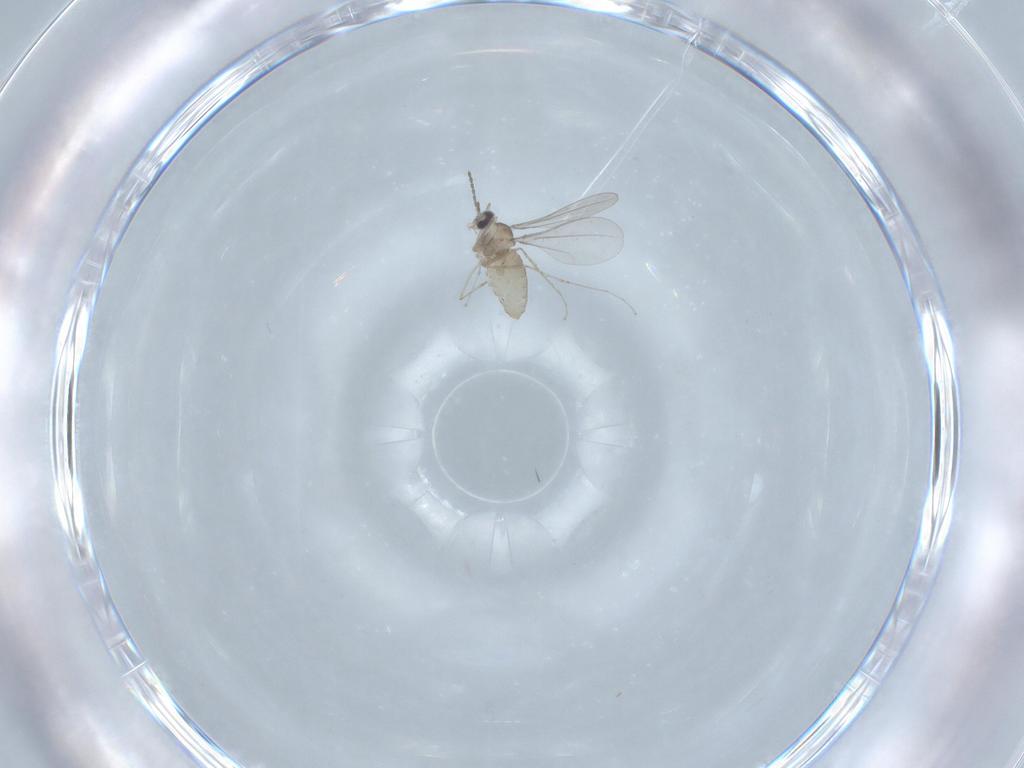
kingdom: Animalia
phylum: Arthropoda
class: Insecta
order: Diptera
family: Cecidomyiidae
